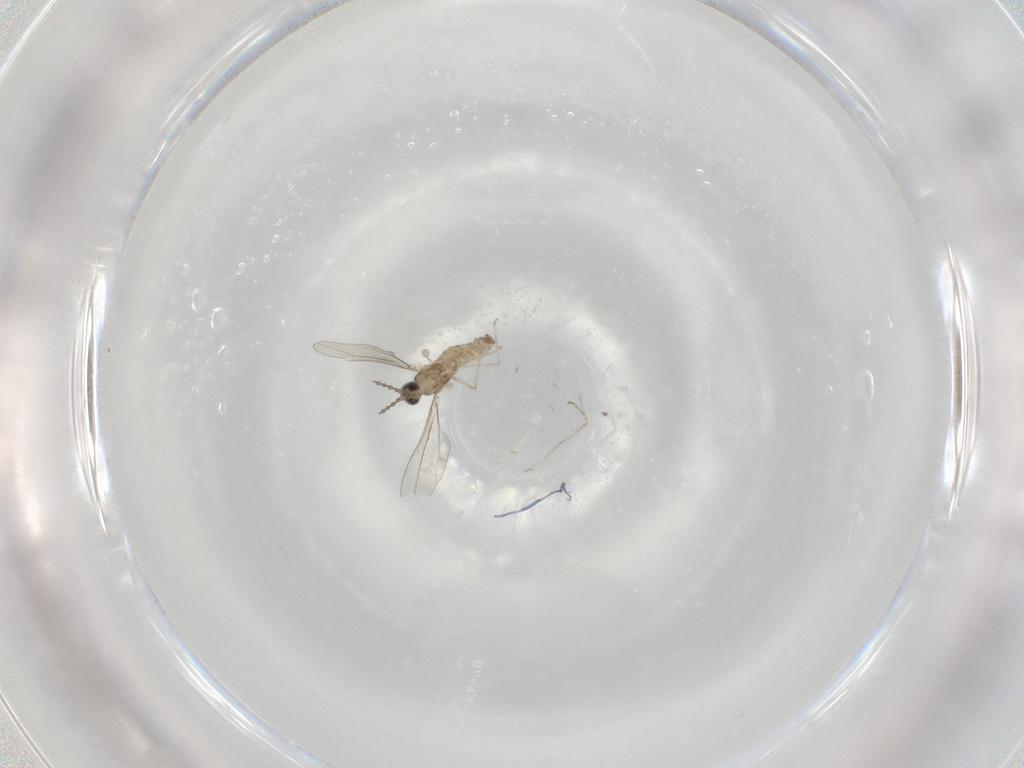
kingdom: Animalia
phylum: Arthropoda
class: Insecta
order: Diptera
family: Cecidomyiidae
